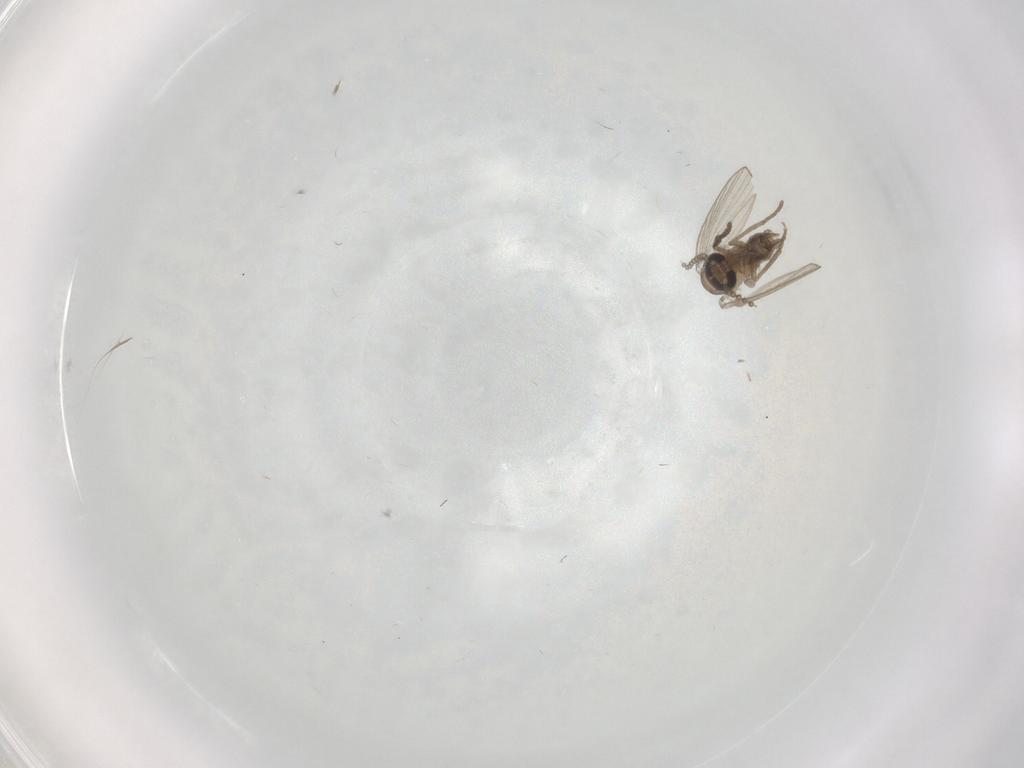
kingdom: Animalia
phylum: Arthropoda
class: Insecta
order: Diptera
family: Psychodidae
